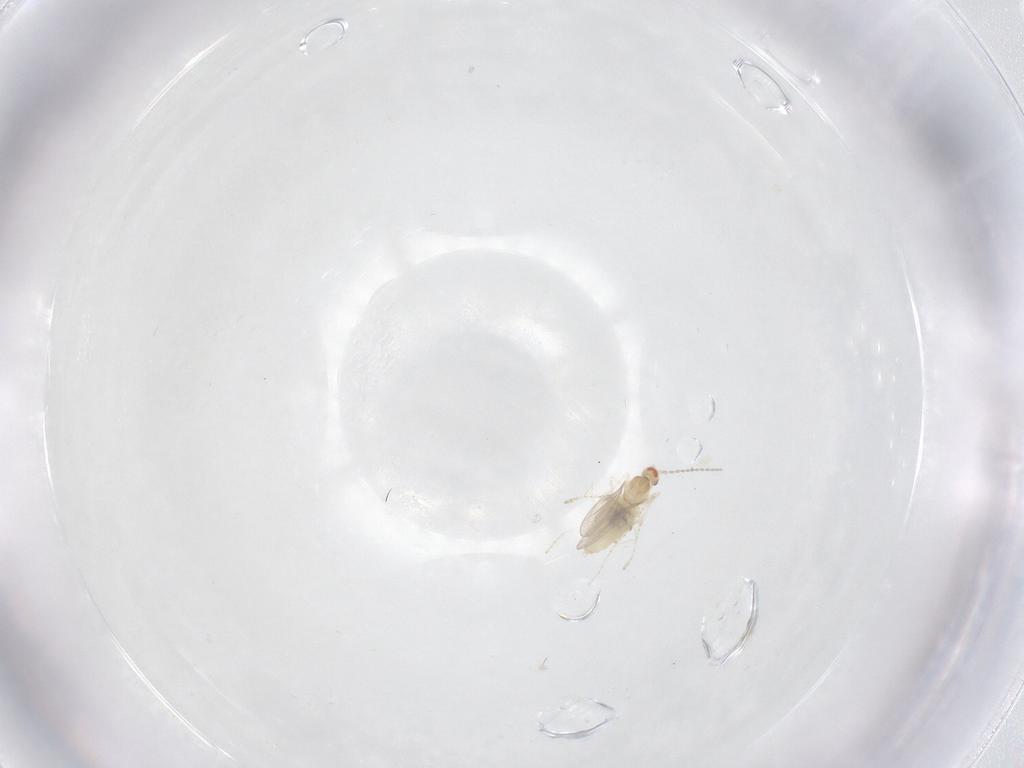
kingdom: Animalia
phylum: Arthropoda
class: Insecta
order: Diptera
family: Cecidomyiidae
